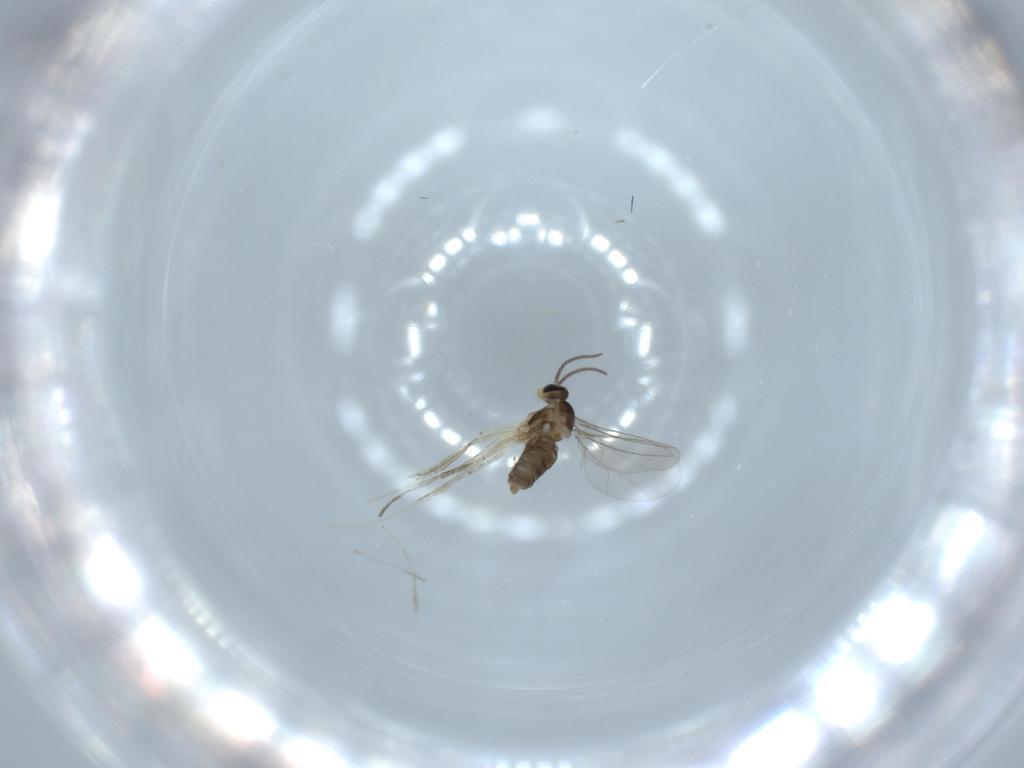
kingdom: Animalia
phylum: Arthropoda
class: Insecta
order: Diptera
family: Cecidomyiidae
